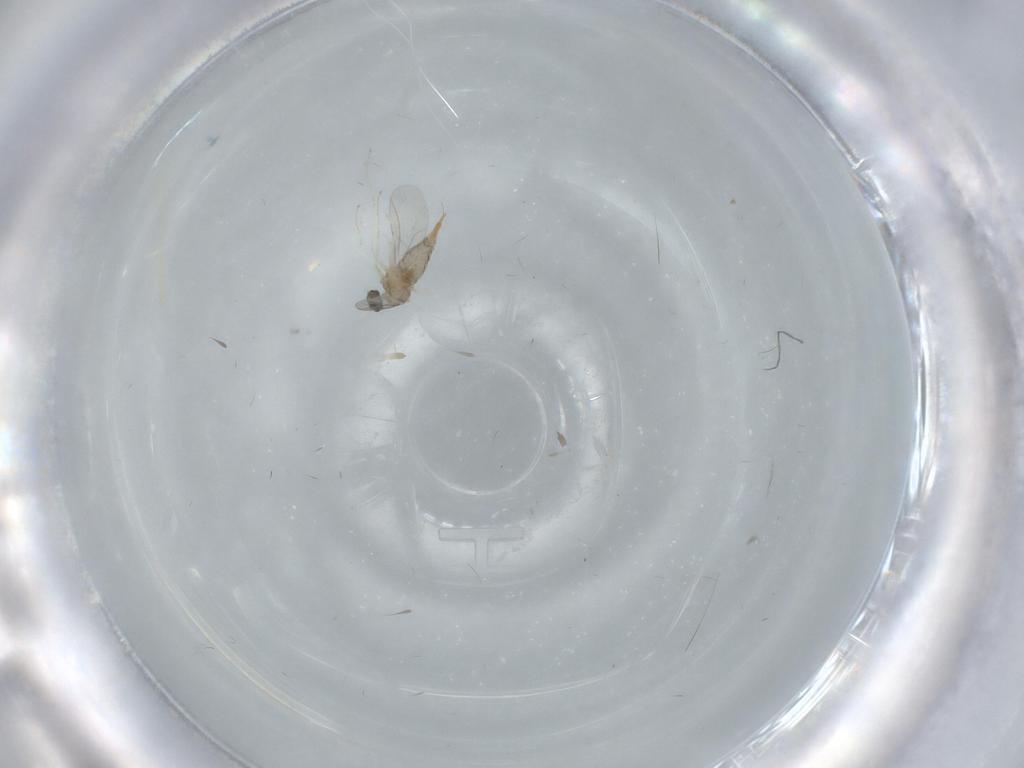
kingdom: Animalia
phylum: Arthropoda
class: Insecta
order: Diptera
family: Cecidomyiidae
